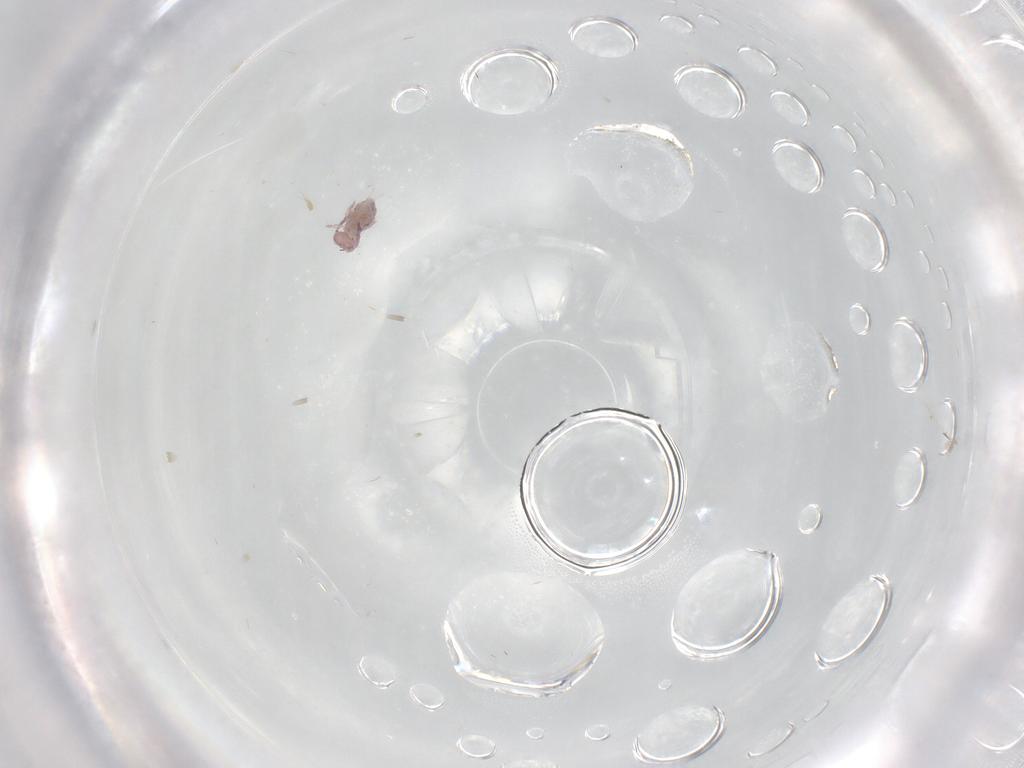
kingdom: Animalia
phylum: Arthropoda
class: Collembola
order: Symphypleona
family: Dicyrtomidae
